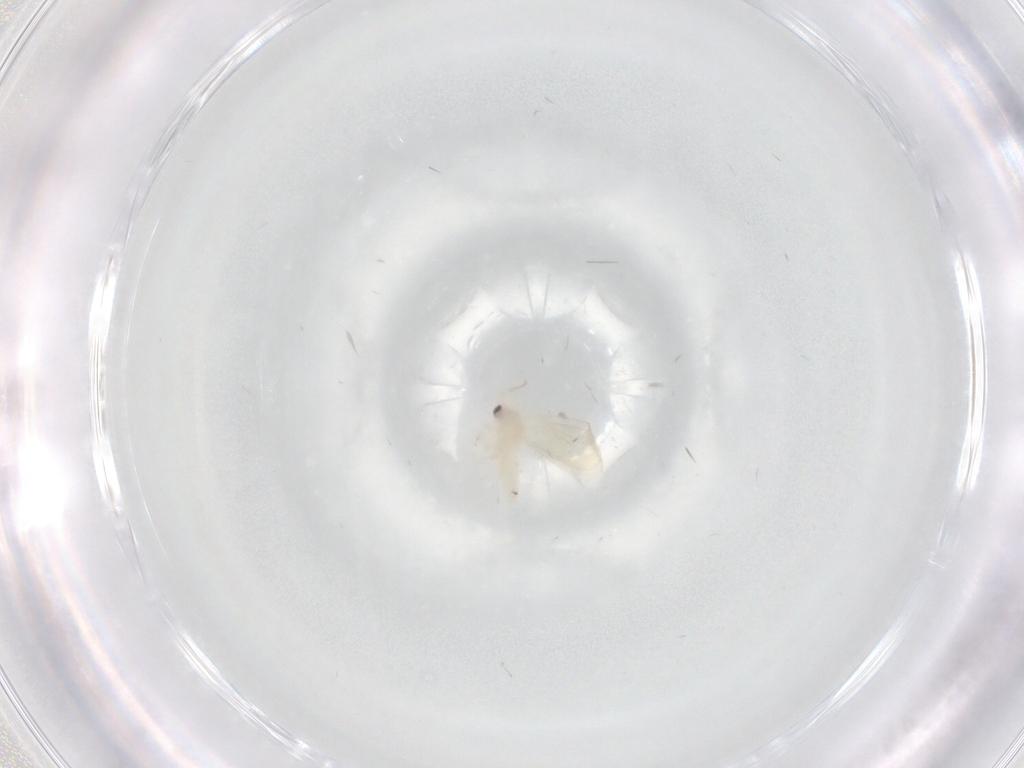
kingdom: Animalia
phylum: Arthropoda
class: Insecta
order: Diptera
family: Phoridae
